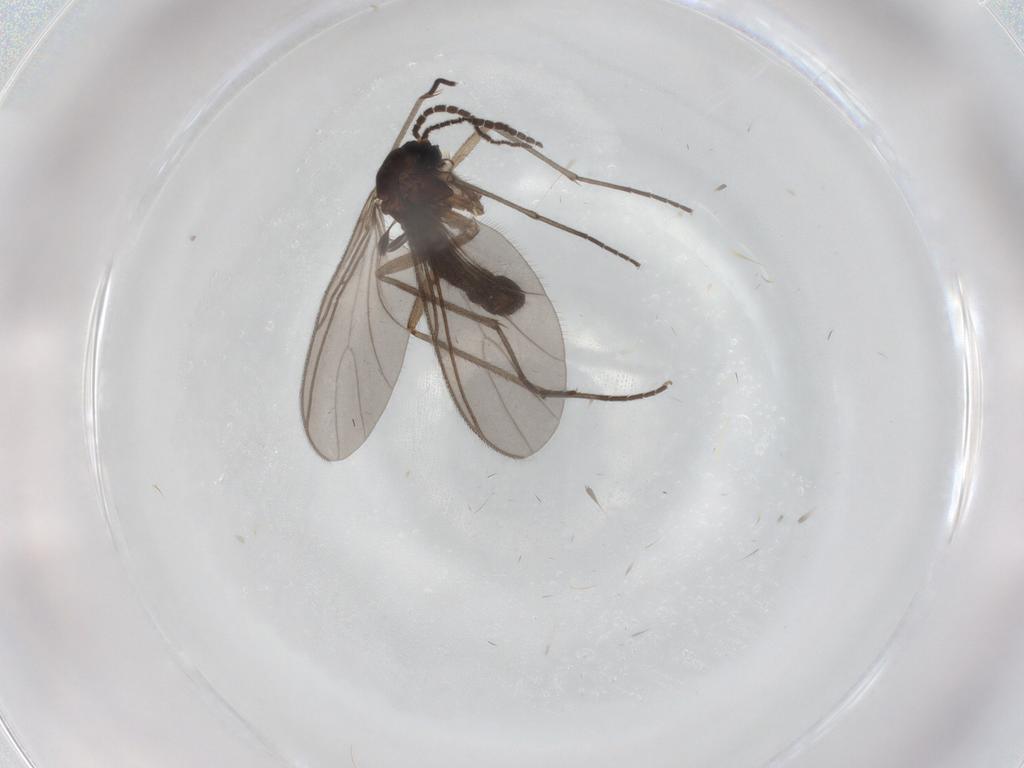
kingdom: Animalia
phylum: Arthropoda
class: Insecta
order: Diptera
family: Sciaridae
